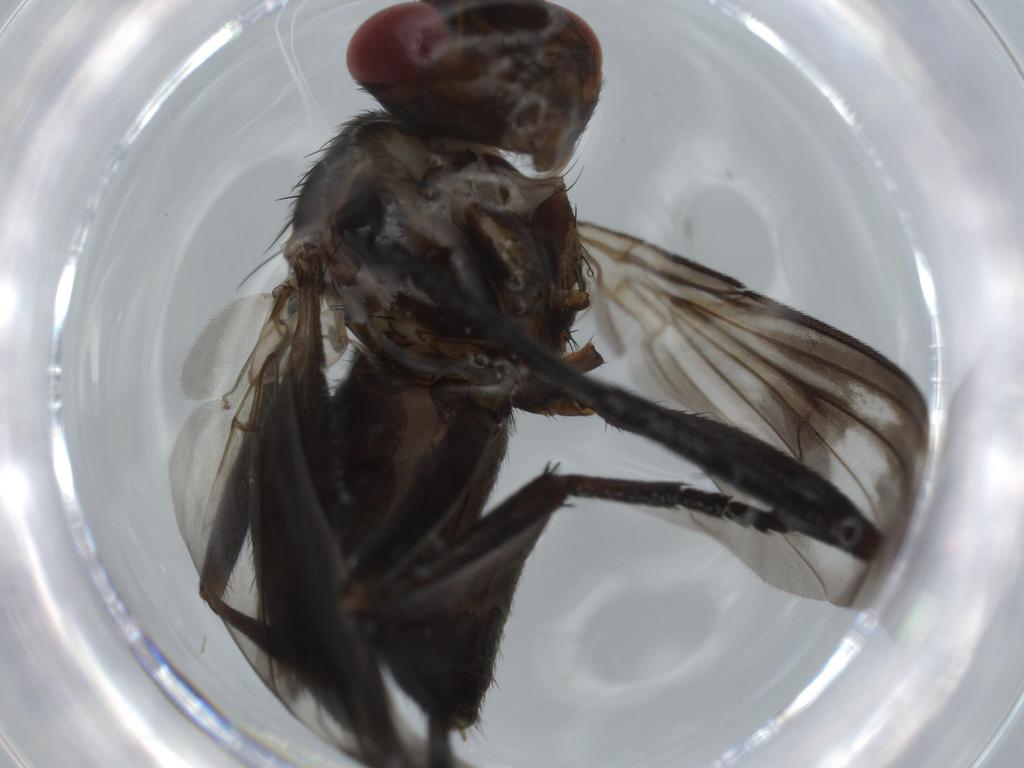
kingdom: Animalia
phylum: Arthropoda
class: Insecta
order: Diptera
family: Calliphoridae
